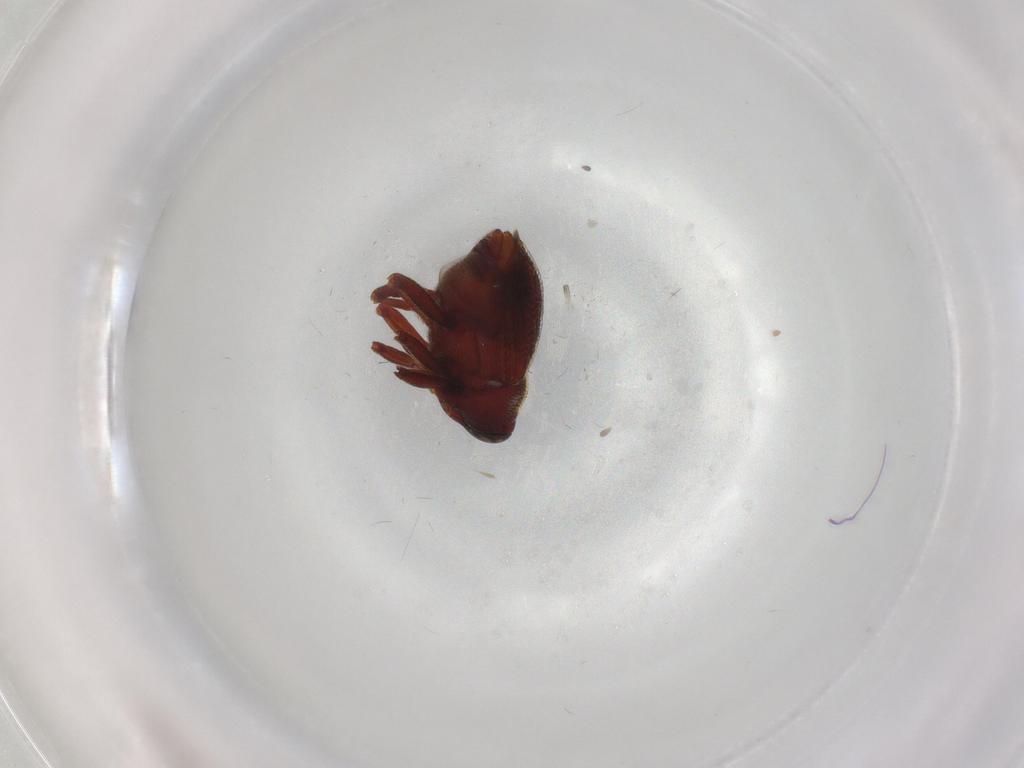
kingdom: Animalia
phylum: Arthropoda
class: Insecta
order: Coleoptera
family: Curculionidae
